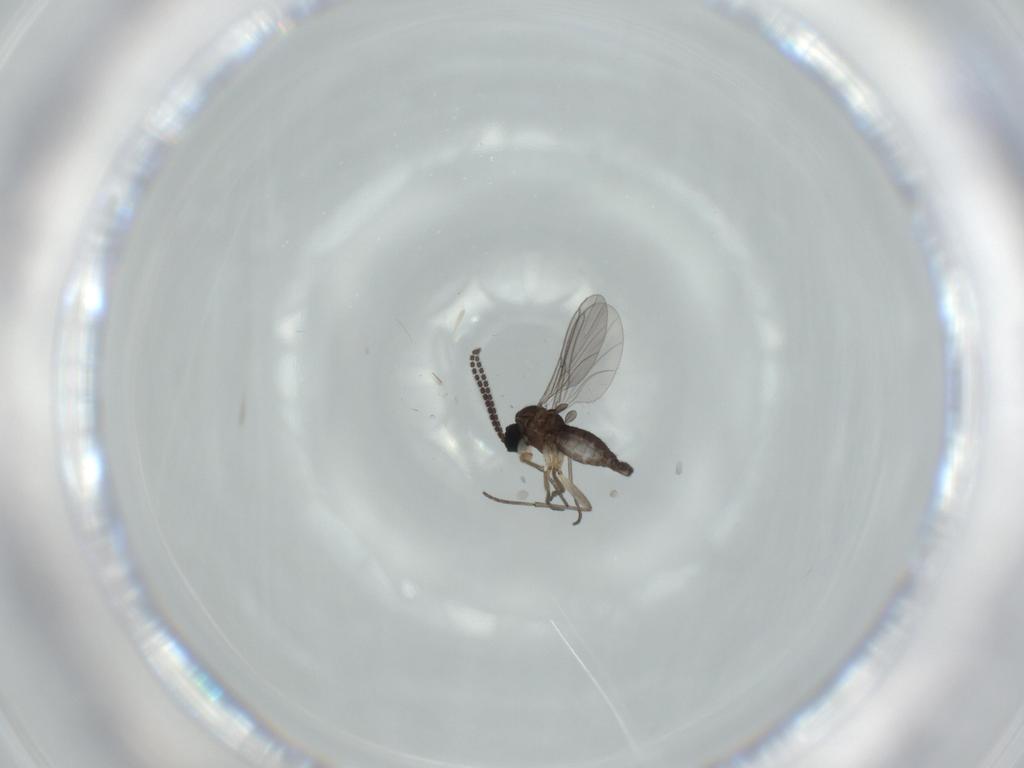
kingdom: Animalia
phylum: Arthropoda
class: Insecta
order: Diptera
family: Sciaridae
